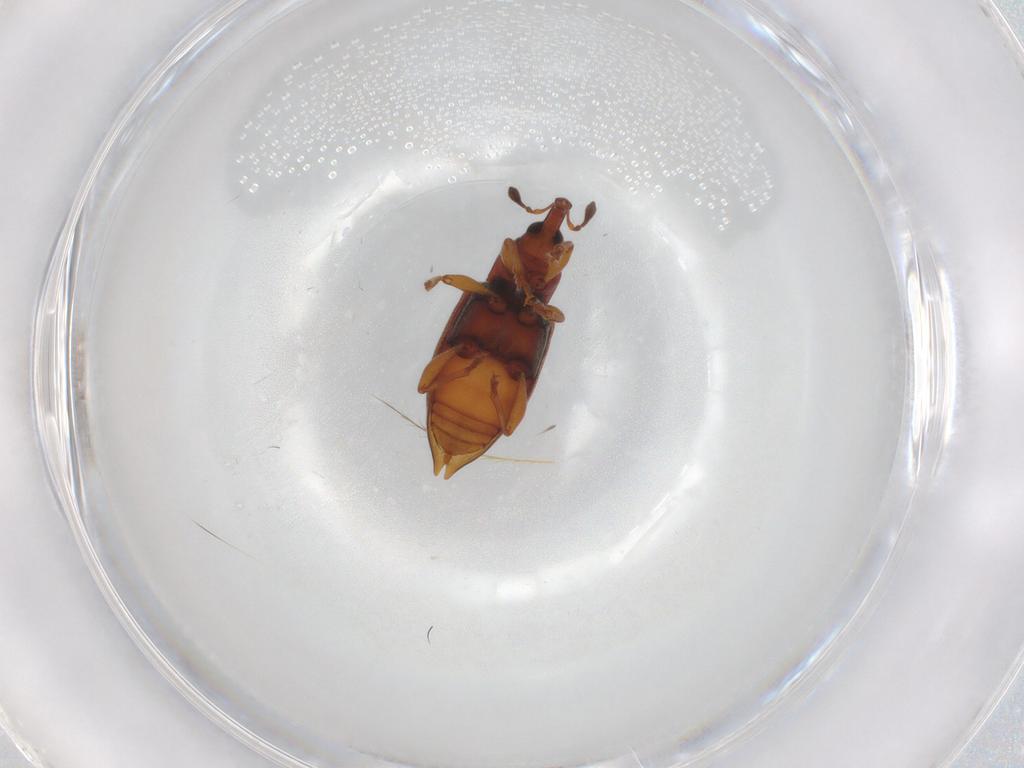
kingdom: Animalia
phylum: Arthropoda
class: Insecta
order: Coleoptera
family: Curculionidae
